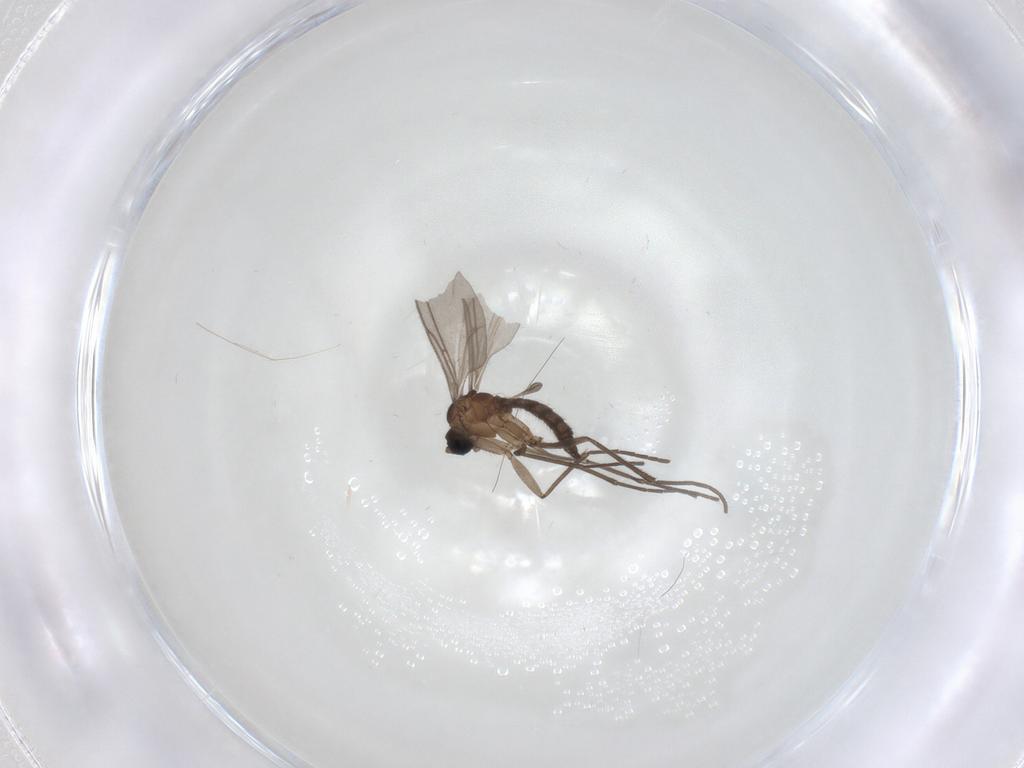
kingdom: Animalia
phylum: Arthropoda
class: Insecta
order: Diptera
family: Sciaridae
